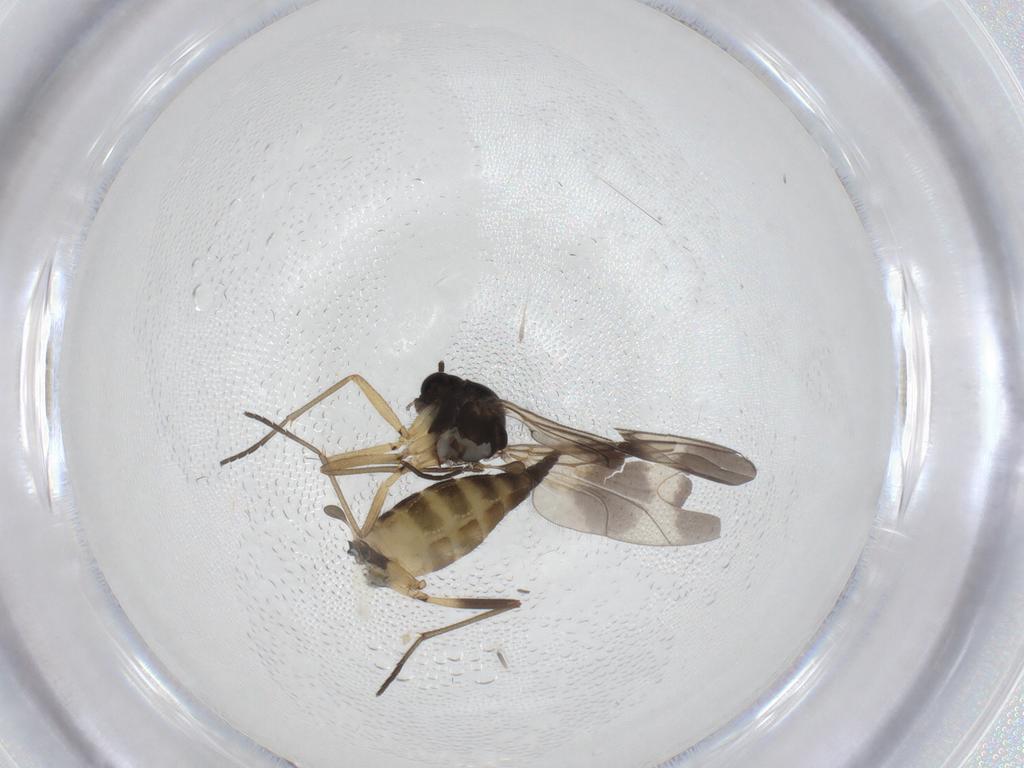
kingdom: Animalia
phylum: Arthropoda
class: Insecta
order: Diptera
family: Sciaridae
